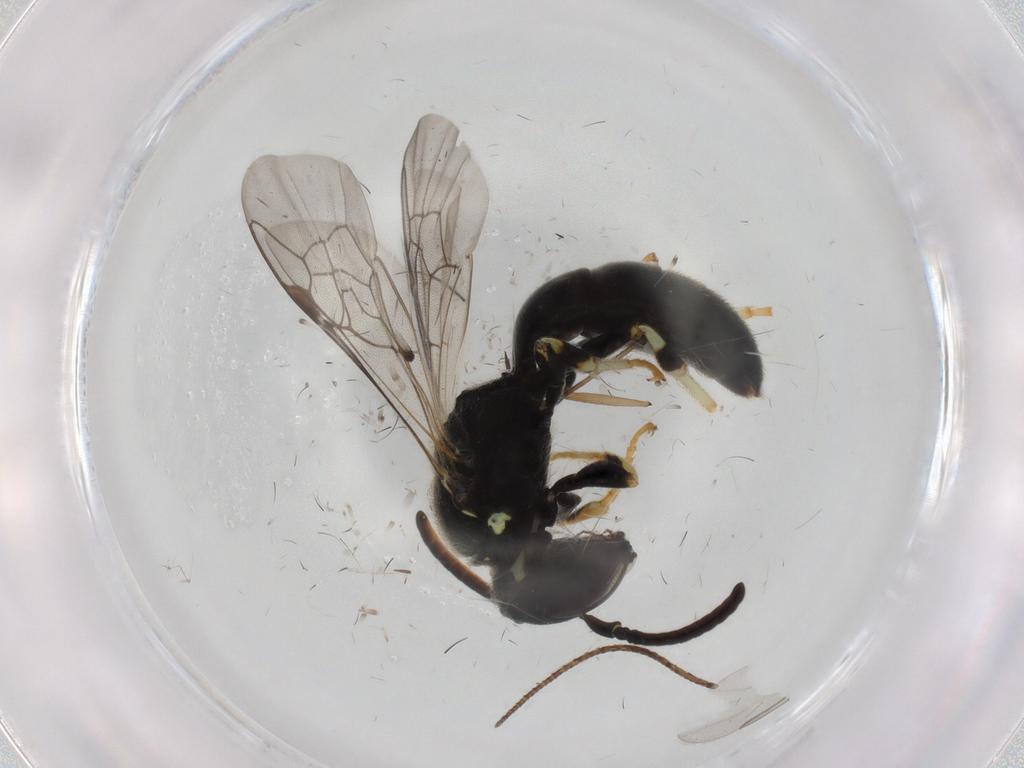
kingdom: Animalia
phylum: Arthropoda
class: Insecta
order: Hymenoptera
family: Colletidae
